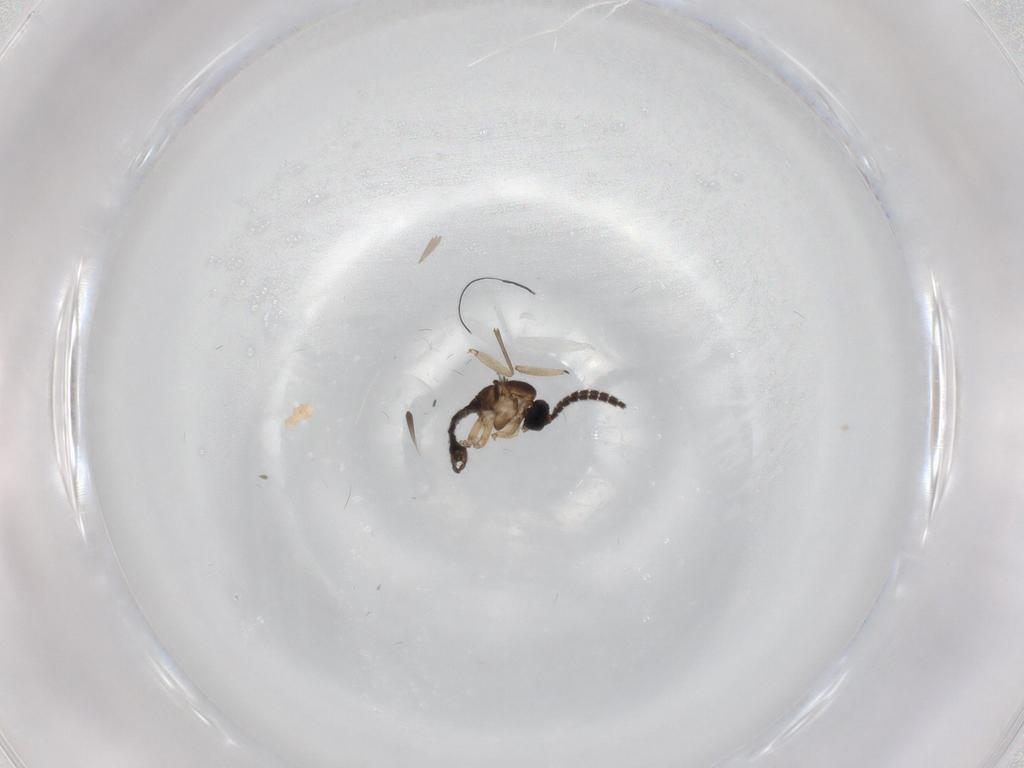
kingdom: Animalia
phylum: Arthropoda
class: Insecta
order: Diptera
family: Sciaridae
